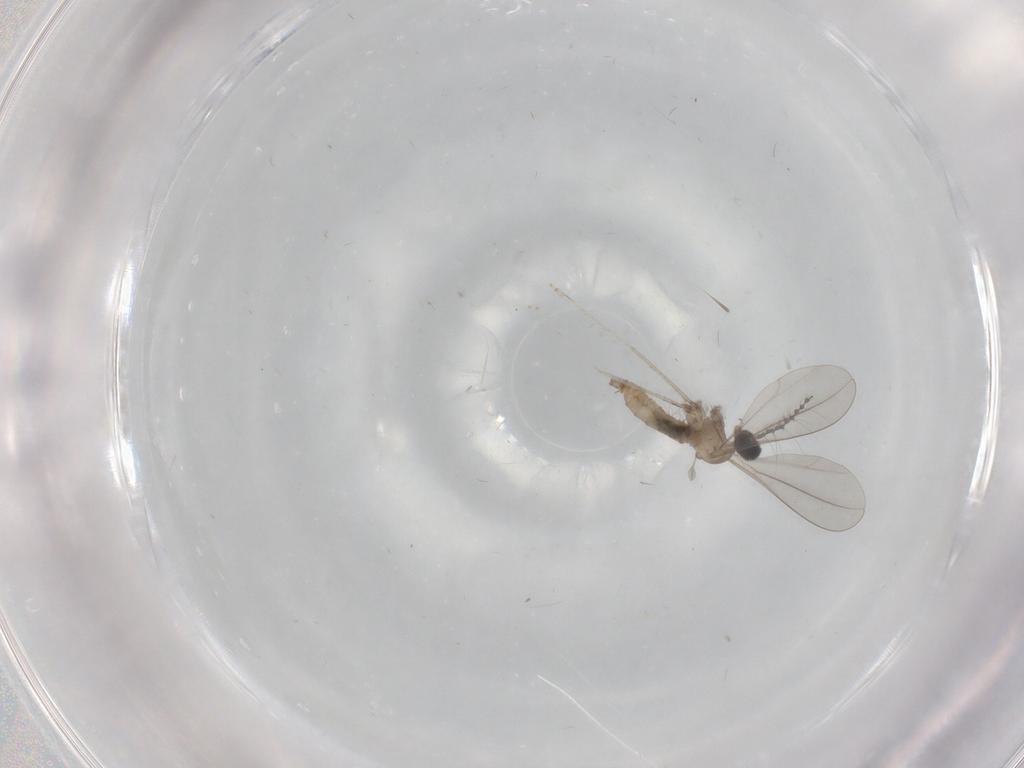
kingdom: Animalia
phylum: Arthropoda
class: Insecta
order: Diptera
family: Cecidomyiidae
